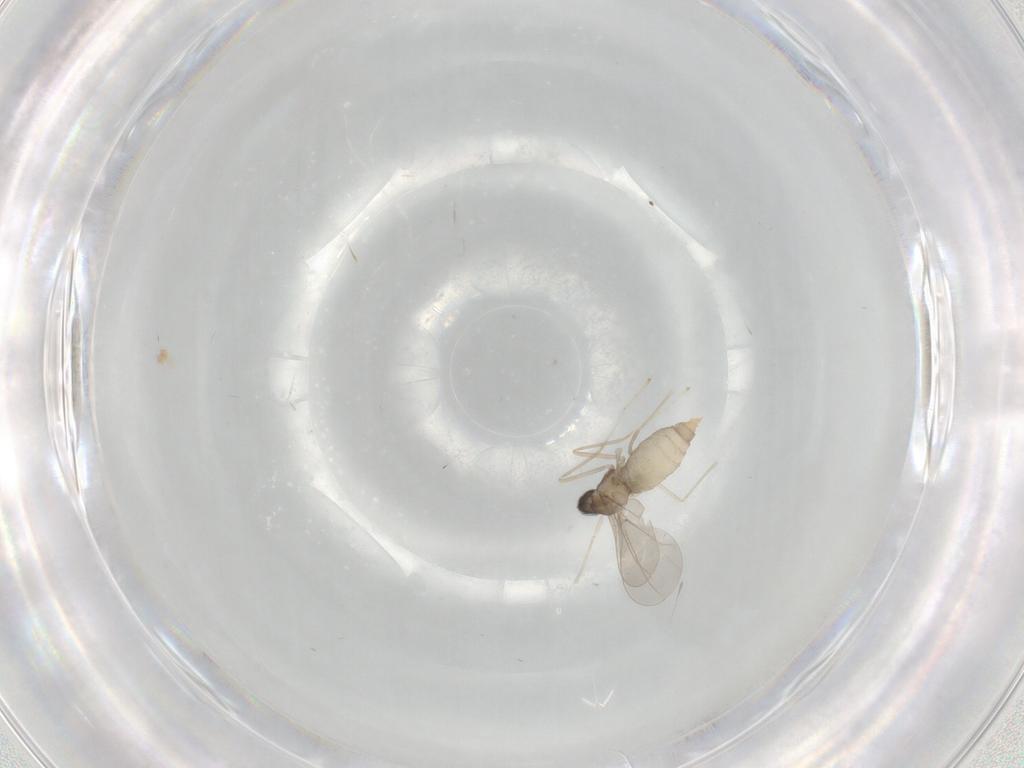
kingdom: Animalia
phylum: Arthropoda
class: Insecta
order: Diptera
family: Cecidomyiidae
